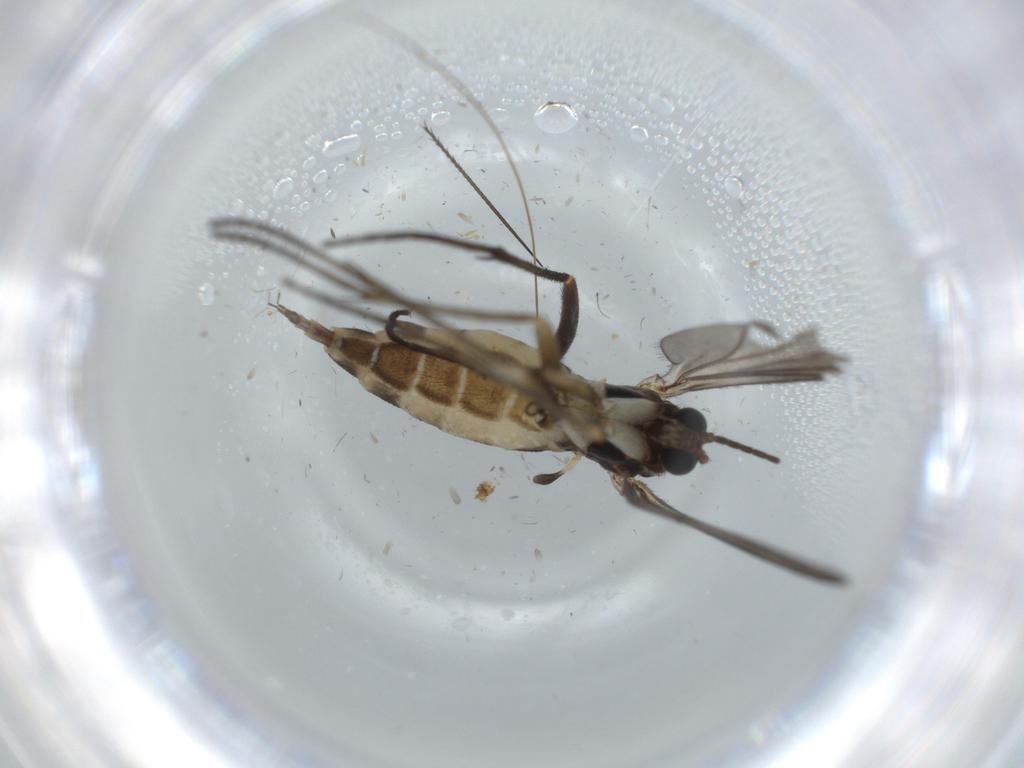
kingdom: Animalia
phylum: Arthropoda
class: Insecta
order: Diptera
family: Sciaridae
